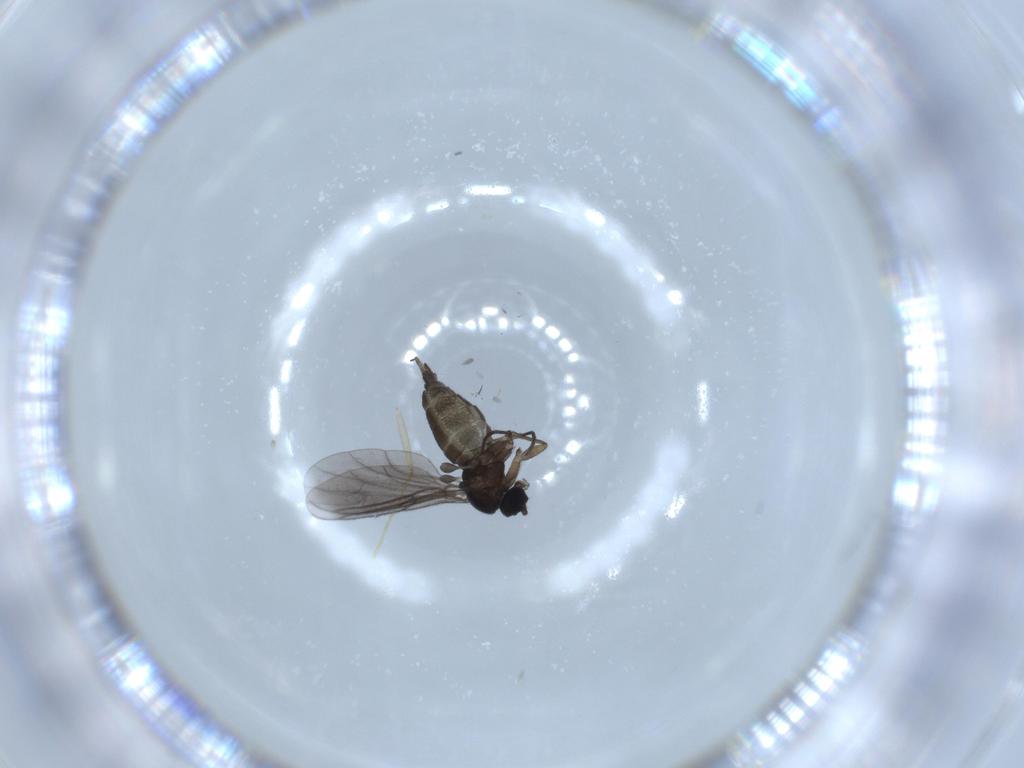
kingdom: Animalia
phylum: Arthropoda
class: Insecta
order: Diptera
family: Sciaridae
